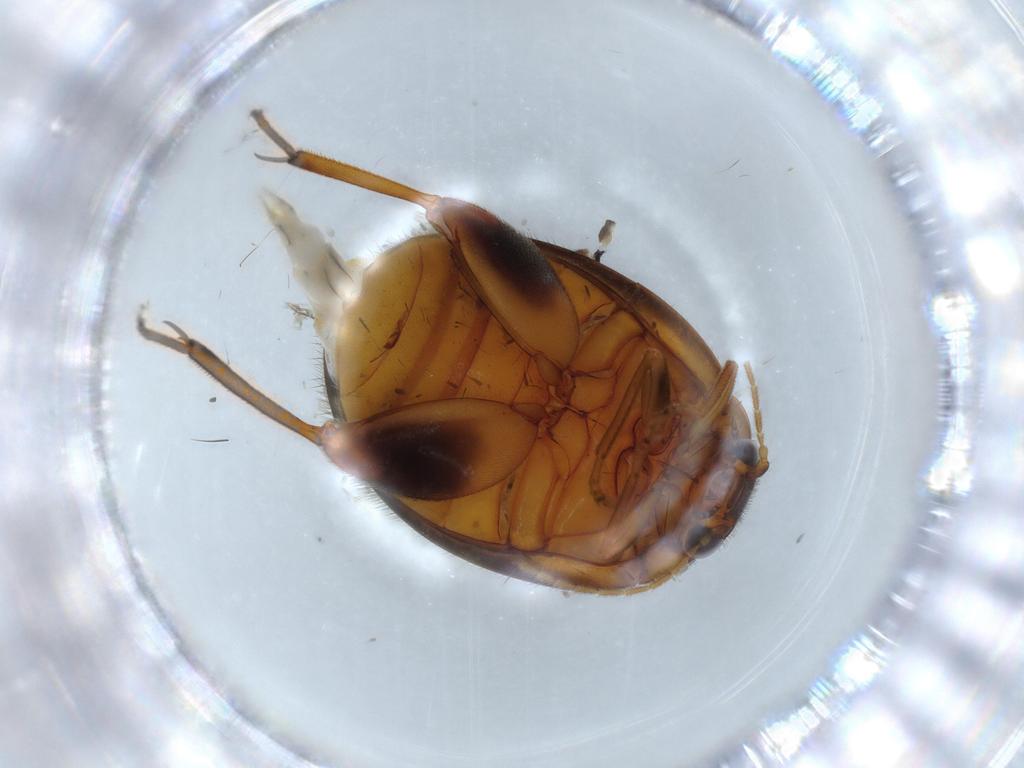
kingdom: Animalia
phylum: Arthropoda
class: Insecta
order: Coleoptera
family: Scirtidae
